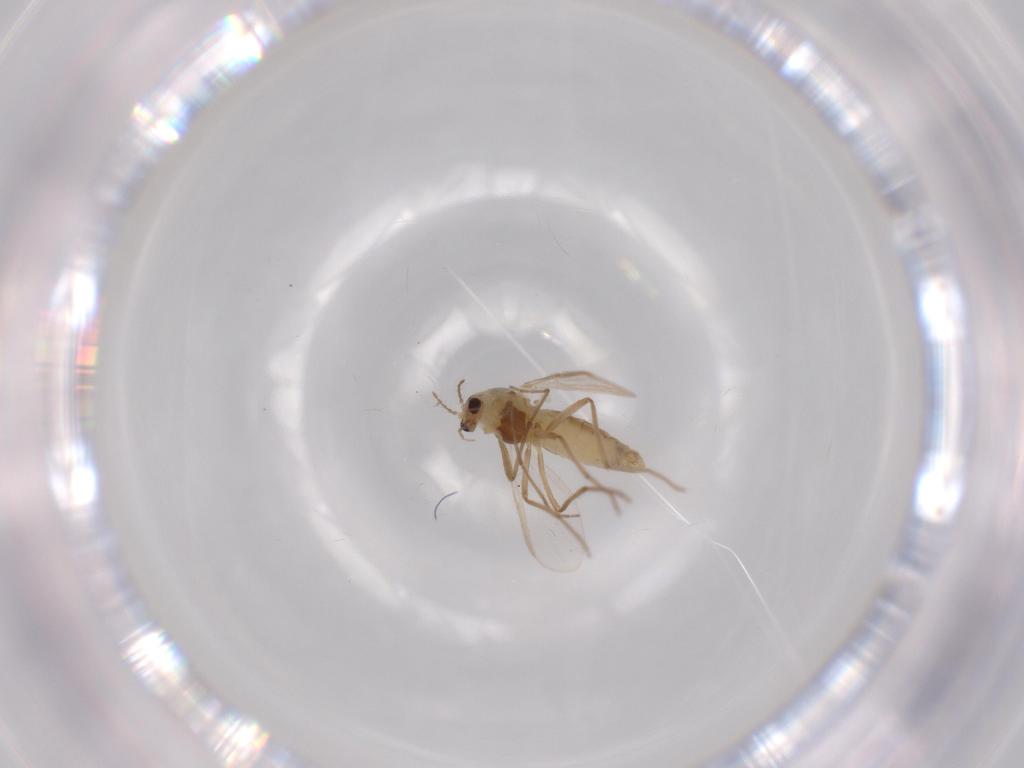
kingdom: Animalia
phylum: Arthropoda
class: Insecta
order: Diptera
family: Chironomidae
